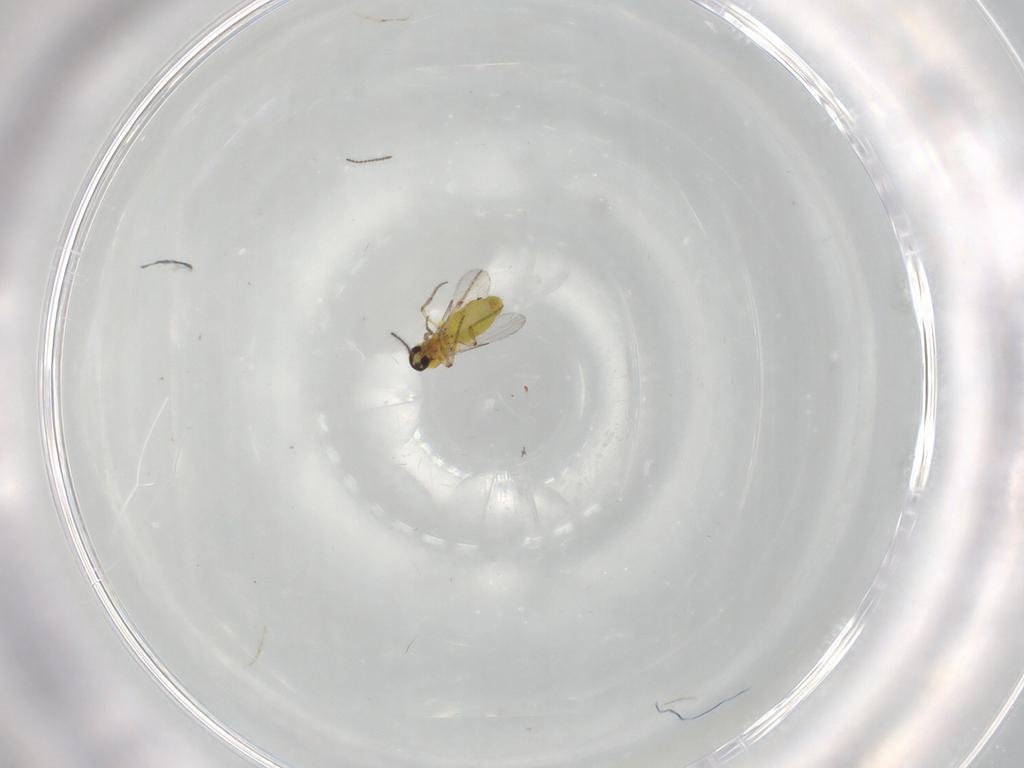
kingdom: Animalia
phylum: Arthropoda
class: Insecta
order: Diptera
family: Ceratopogonidae
